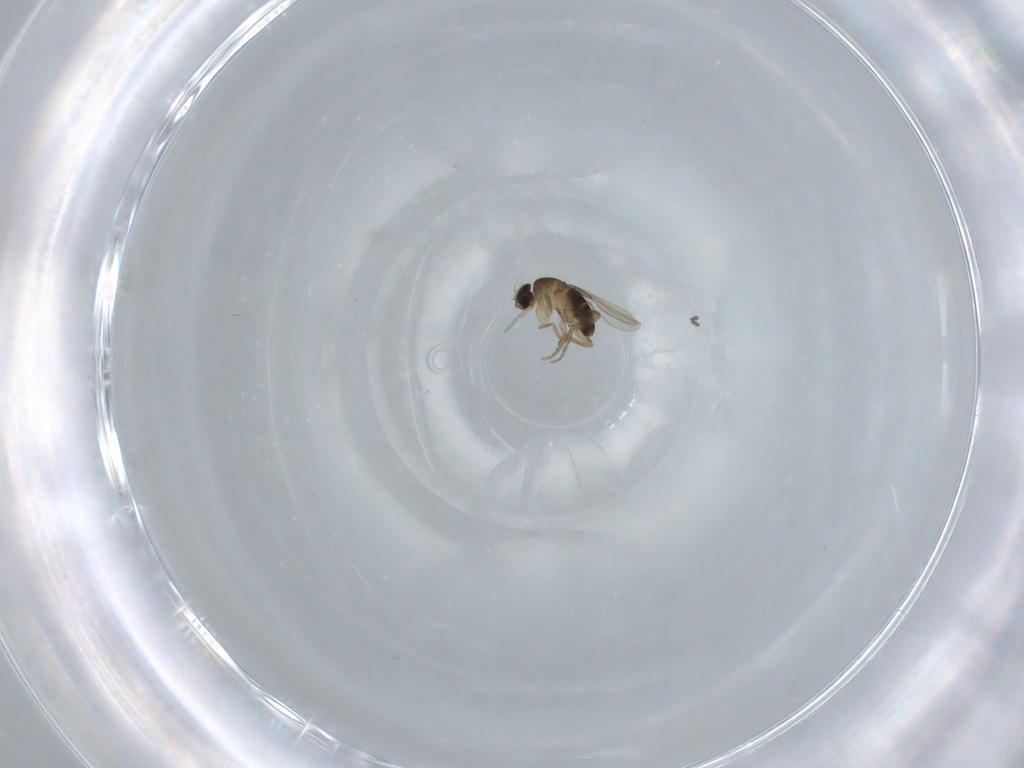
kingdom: Animalia
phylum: Arthropoda
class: Insecta
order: Diptera
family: Phoridae
